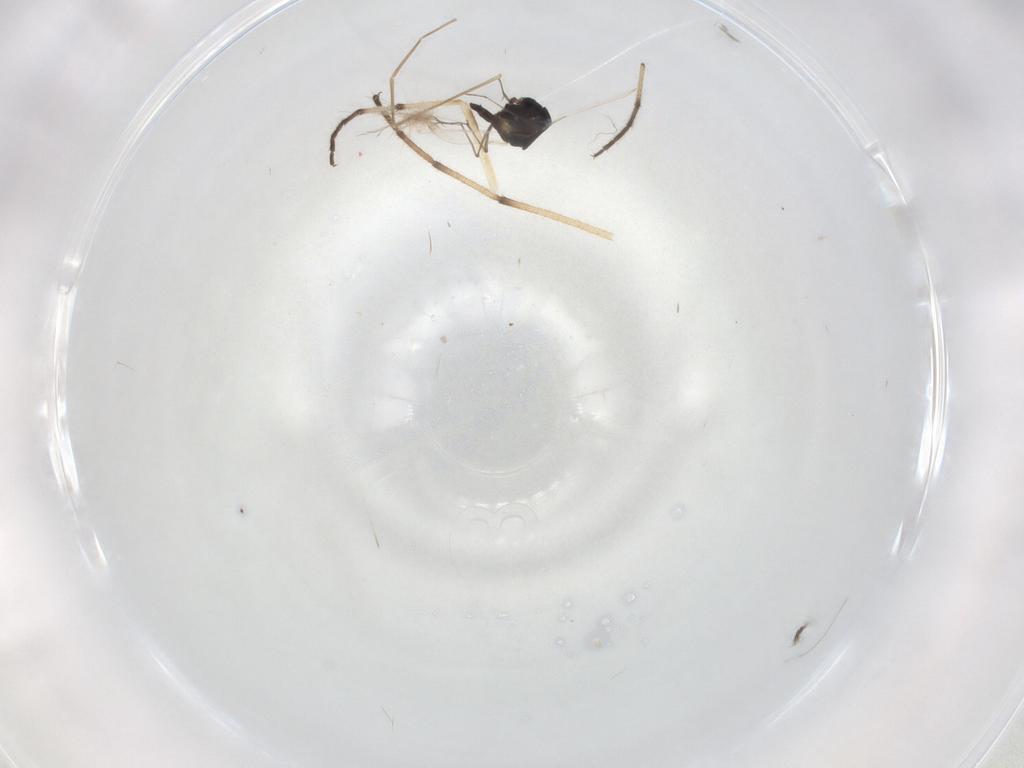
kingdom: Animalia
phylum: Arthropoda
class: Insecta
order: Diptera
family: Chironomidae
